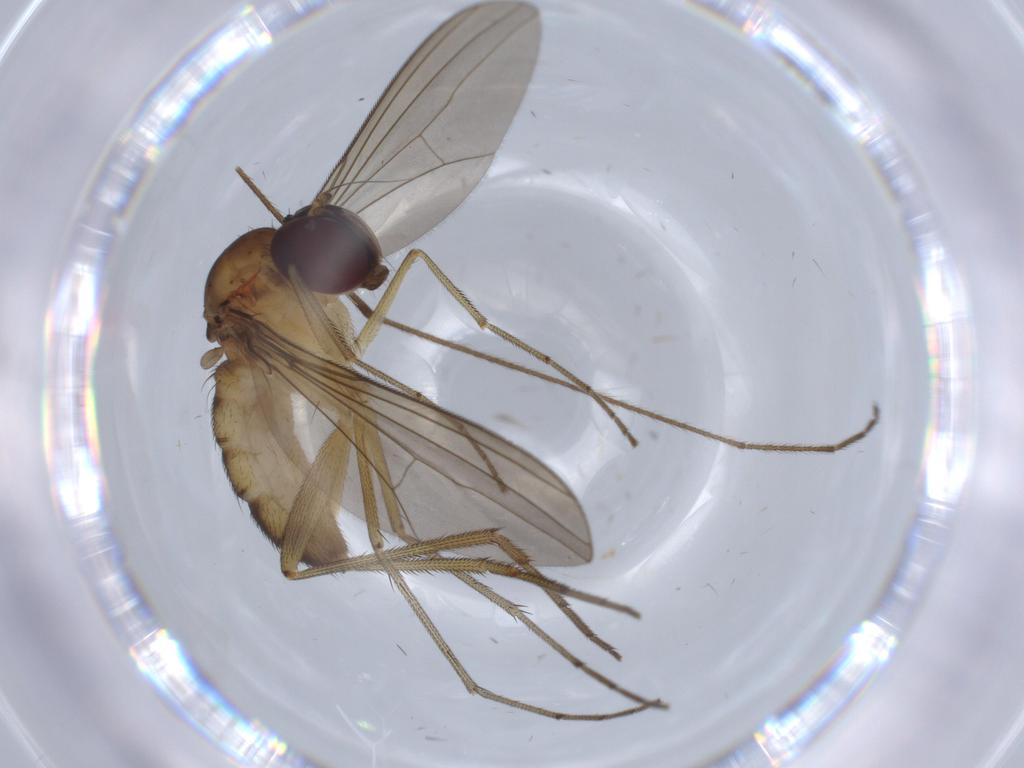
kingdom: Animalia
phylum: Arthropoda
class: Insecta
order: Diptera
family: Dolichopodidae
